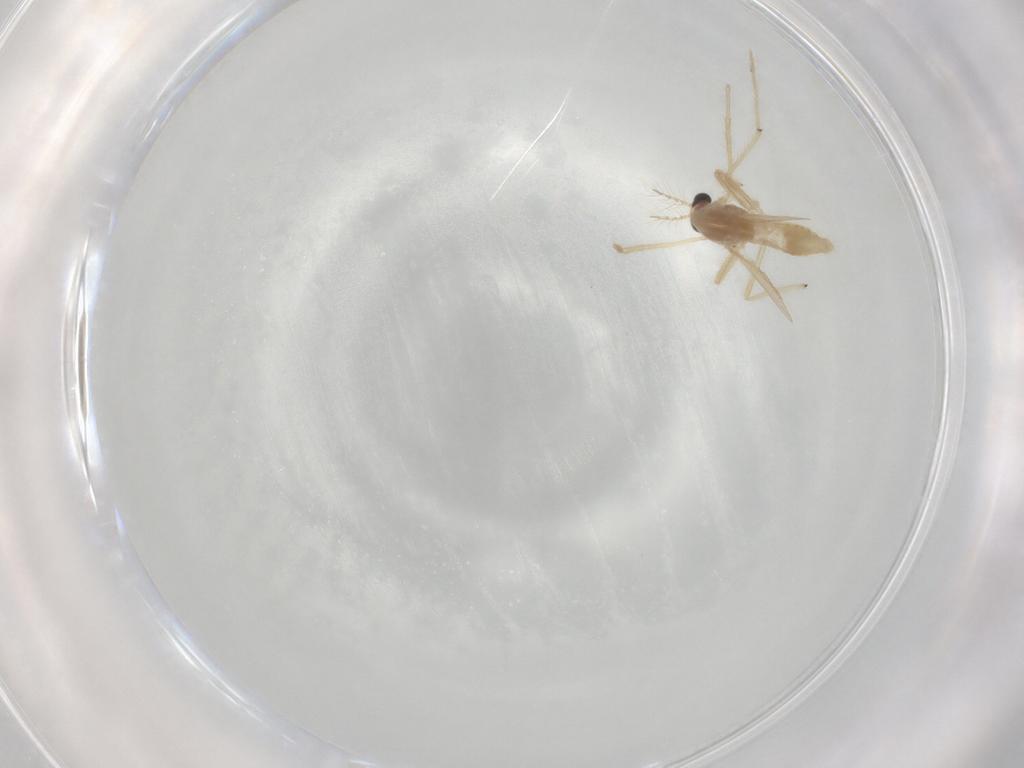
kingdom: Animalia
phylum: Arthropoda
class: Insecta
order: Diptera
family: Chironomidae
